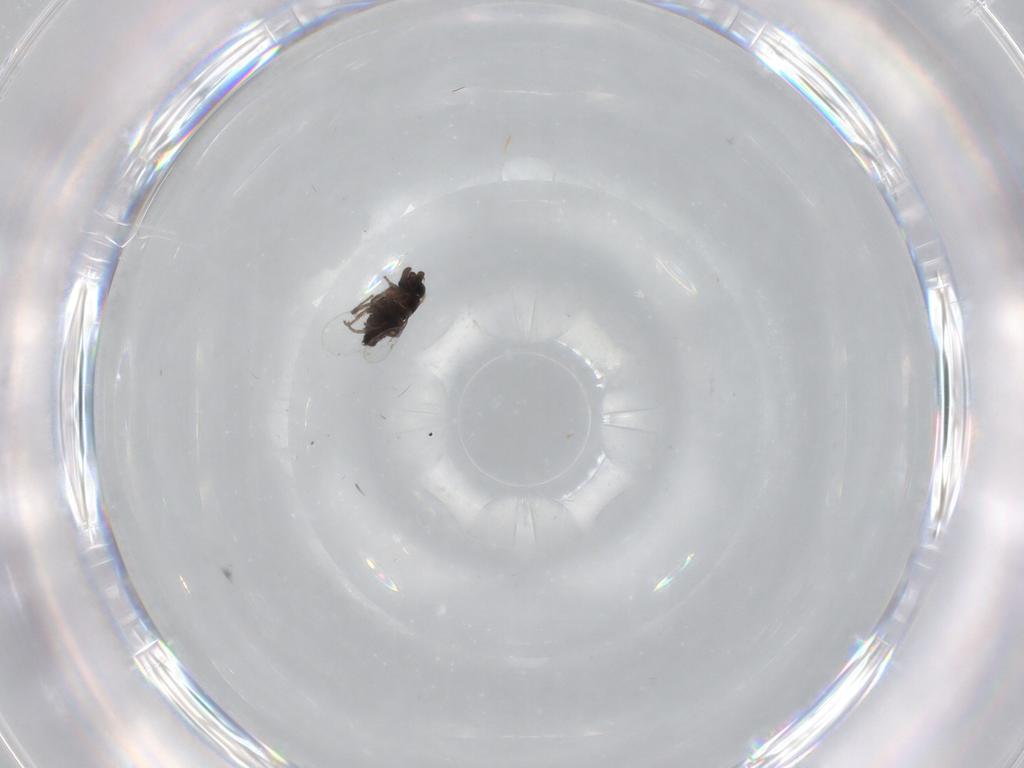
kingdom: Animalia
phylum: Arthropoda
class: Insecta
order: Diptera
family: Phoridae
